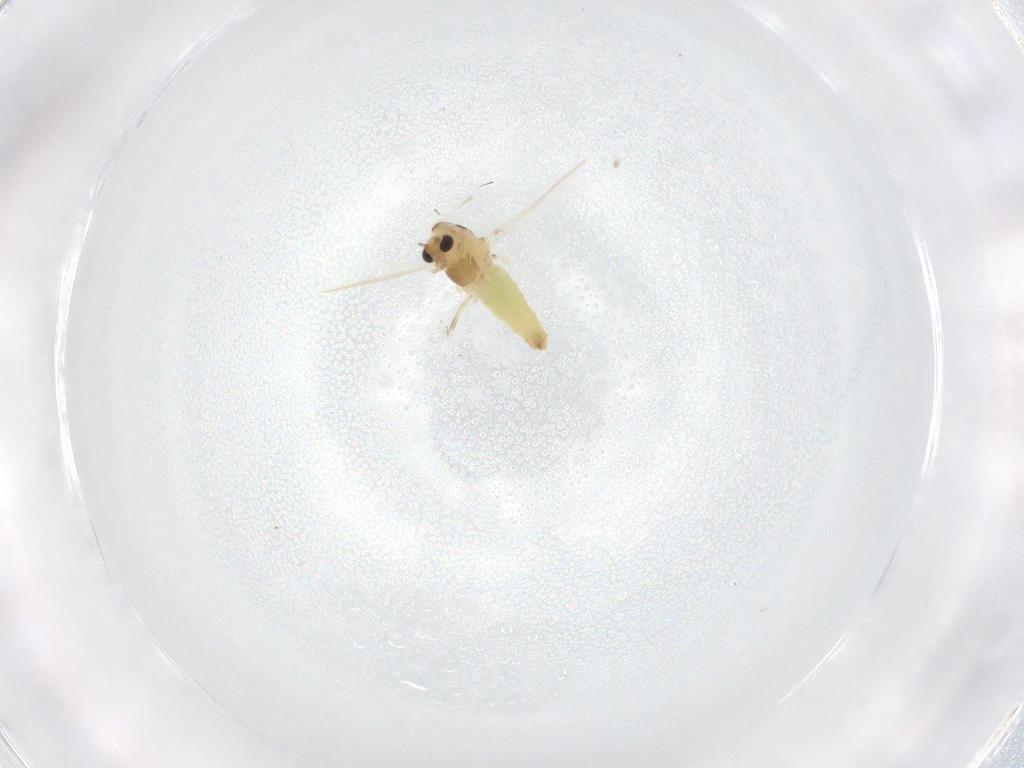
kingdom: Animalia
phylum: Arthropoda
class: Insecta
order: Diptera
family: Chironomidae
